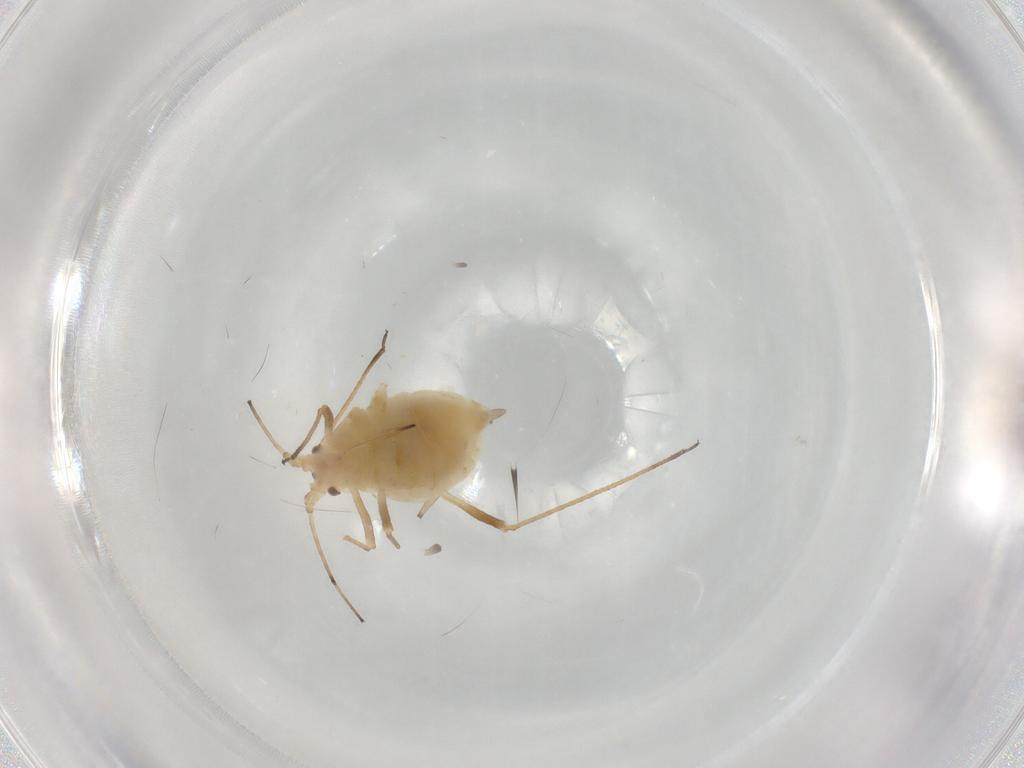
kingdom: Animalia
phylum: Arthropoda
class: Insecta
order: Hemiptera
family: Aphididae
